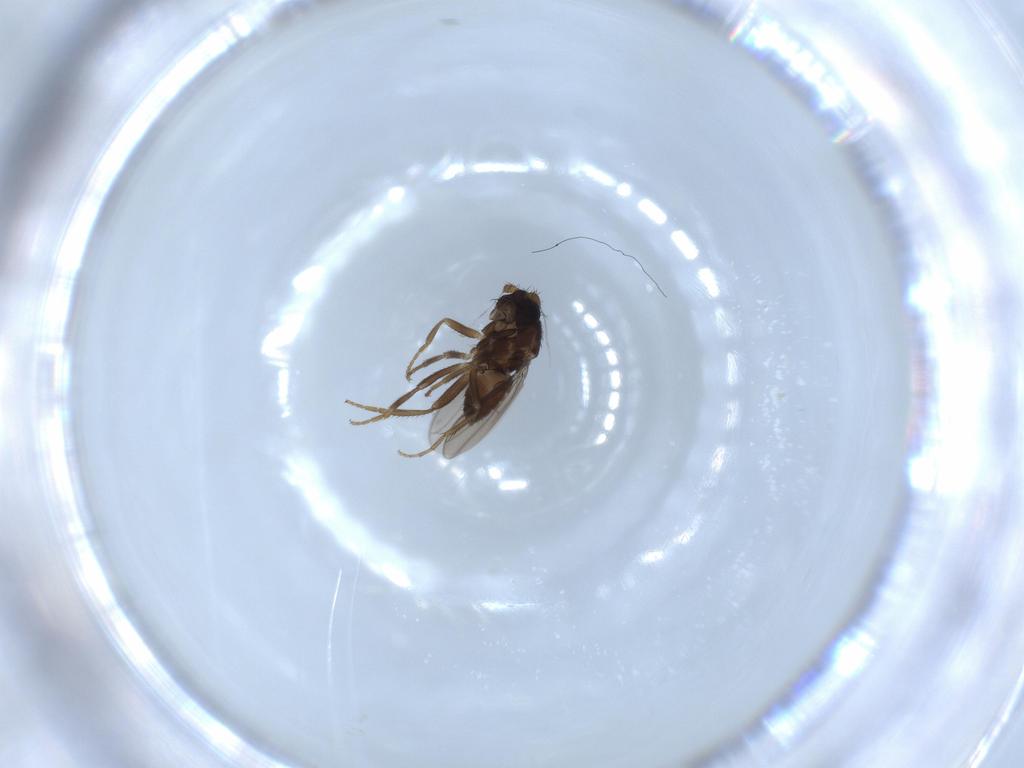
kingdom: Animalia
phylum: Arthropoda
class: Insecta
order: Diptera
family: Sphaeroceridae
